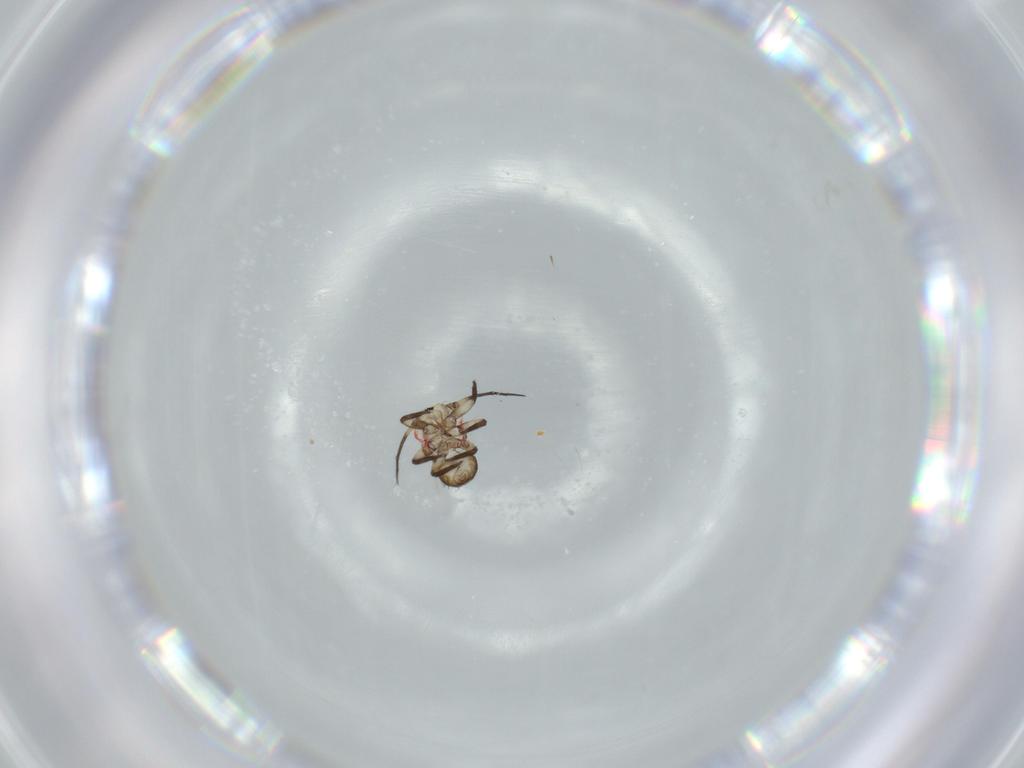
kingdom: Animalia
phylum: Arthropoda
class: Insecta
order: Hemiptera
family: Psyllidae
